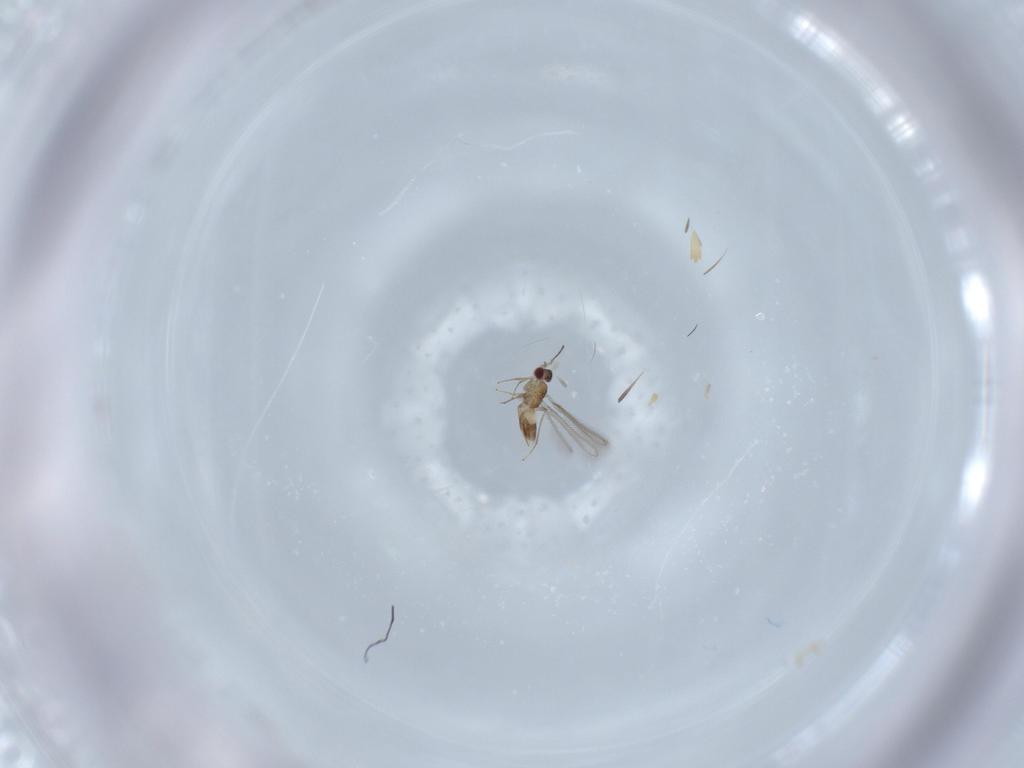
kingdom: Animalia
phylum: Arthropoda
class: Insecta
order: Hymenoptera
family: Mymaridae
